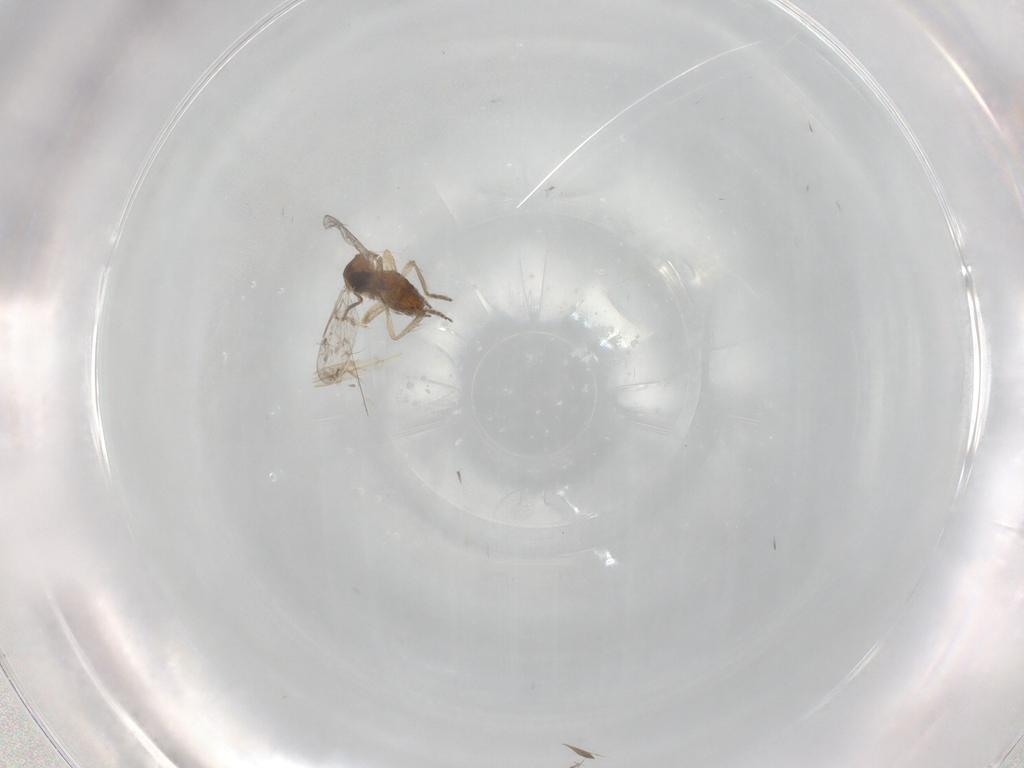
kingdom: Animalia
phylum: Arthropoda
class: Insecta
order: Diptera
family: Ceratopogonidae
